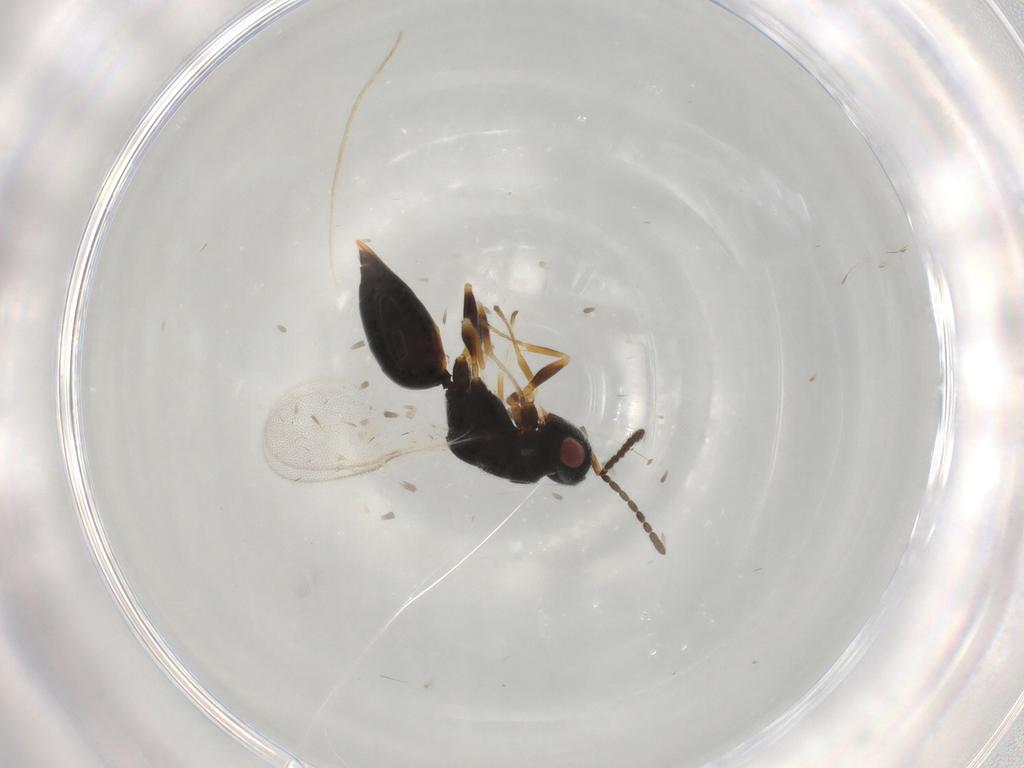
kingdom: Animalia
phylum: Arthropoda
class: Insecta
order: Hymenoptera
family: Eurytomidae
